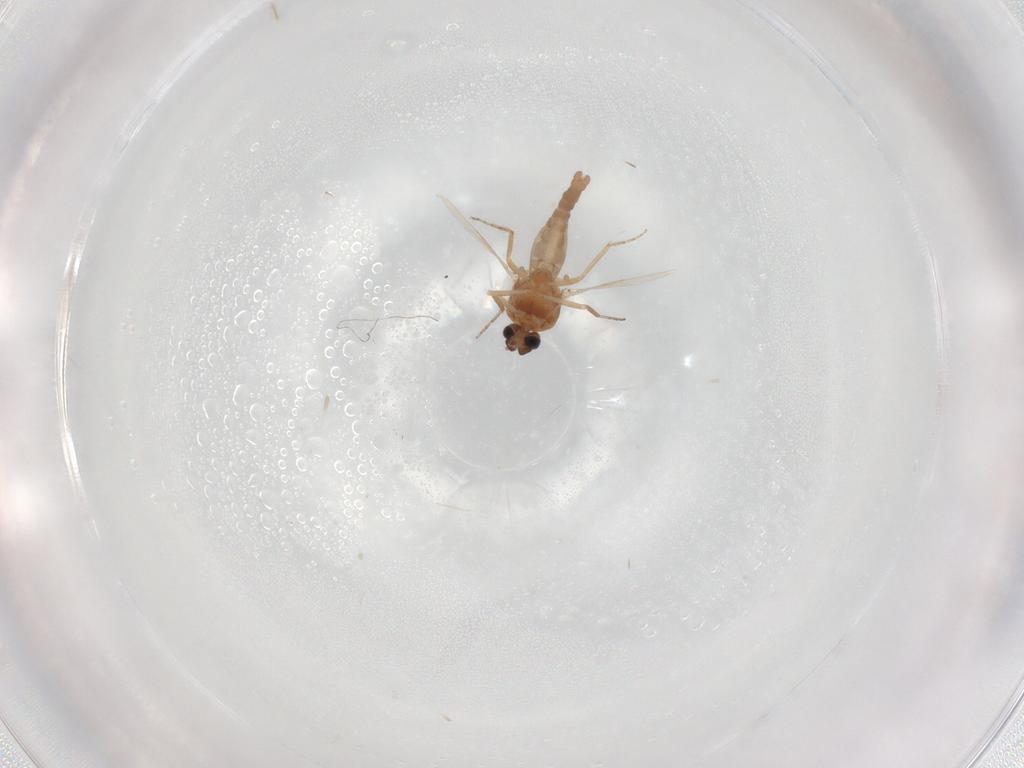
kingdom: Animalia
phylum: Arthropoda
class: Insecta
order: Diptera
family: Ceratopogonidae
